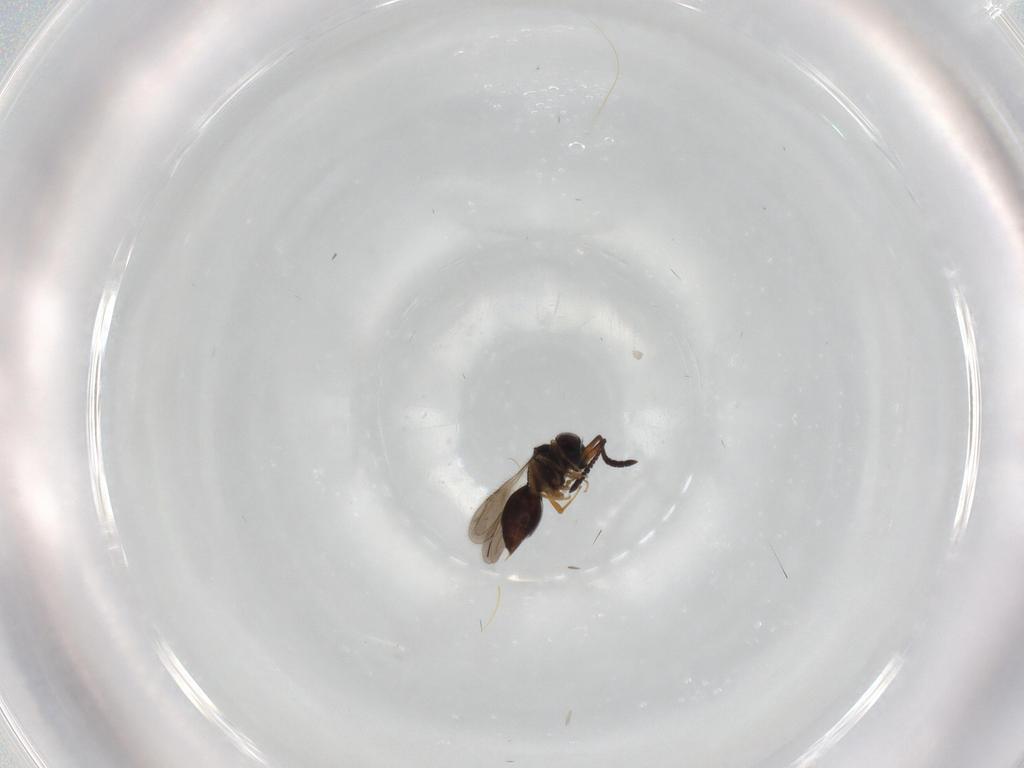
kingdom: Animalia
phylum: Arthropoda
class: Insecta
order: Hymenoptera
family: Ceraphronidae
